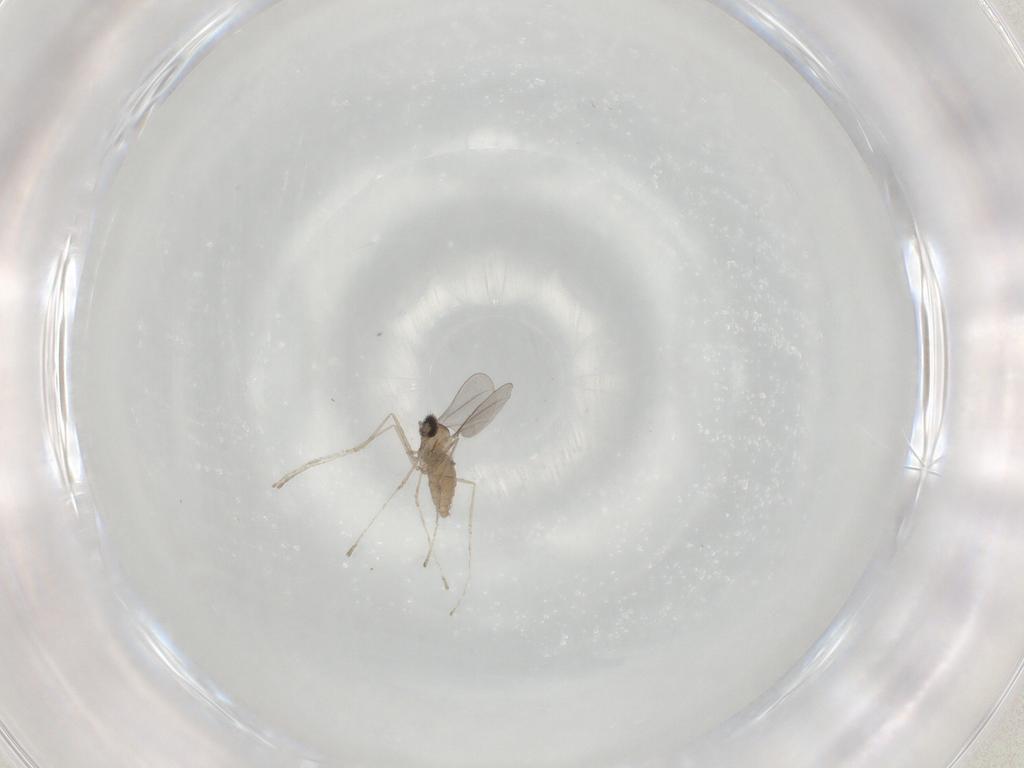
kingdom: Animalia
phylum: Arthropoda
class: Insecta
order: Diptera
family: Cecidomyiidae
